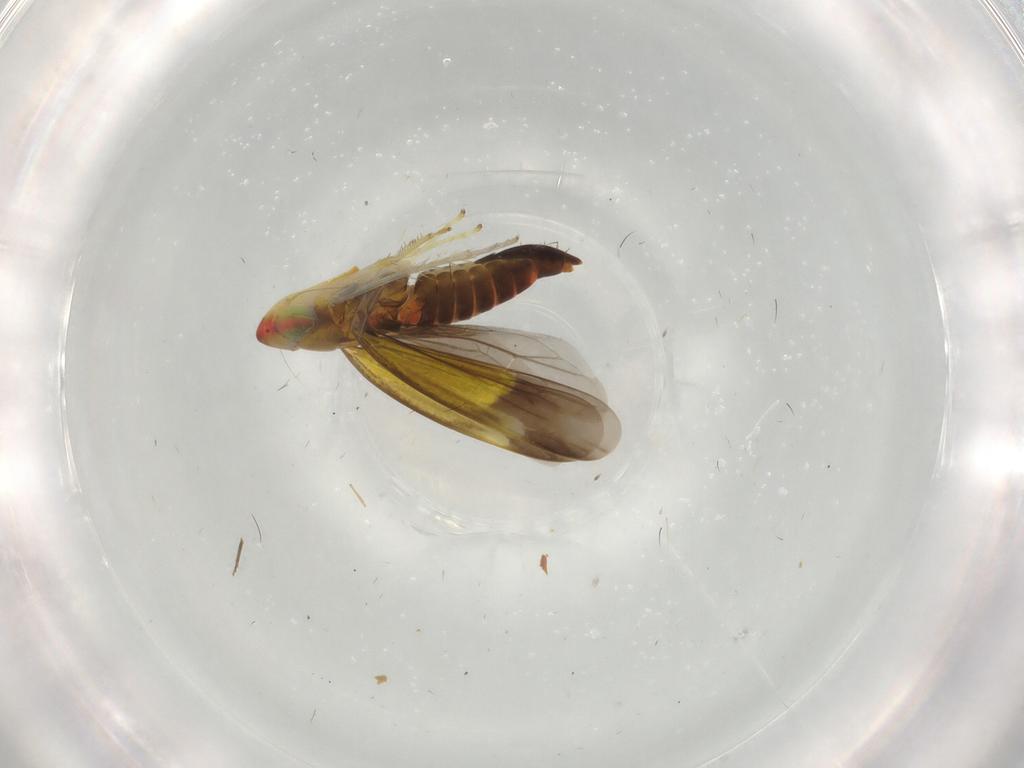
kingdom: Animalia
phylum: Arthropoda
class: Insecta
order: Hemiptera
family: Cicadellidae
